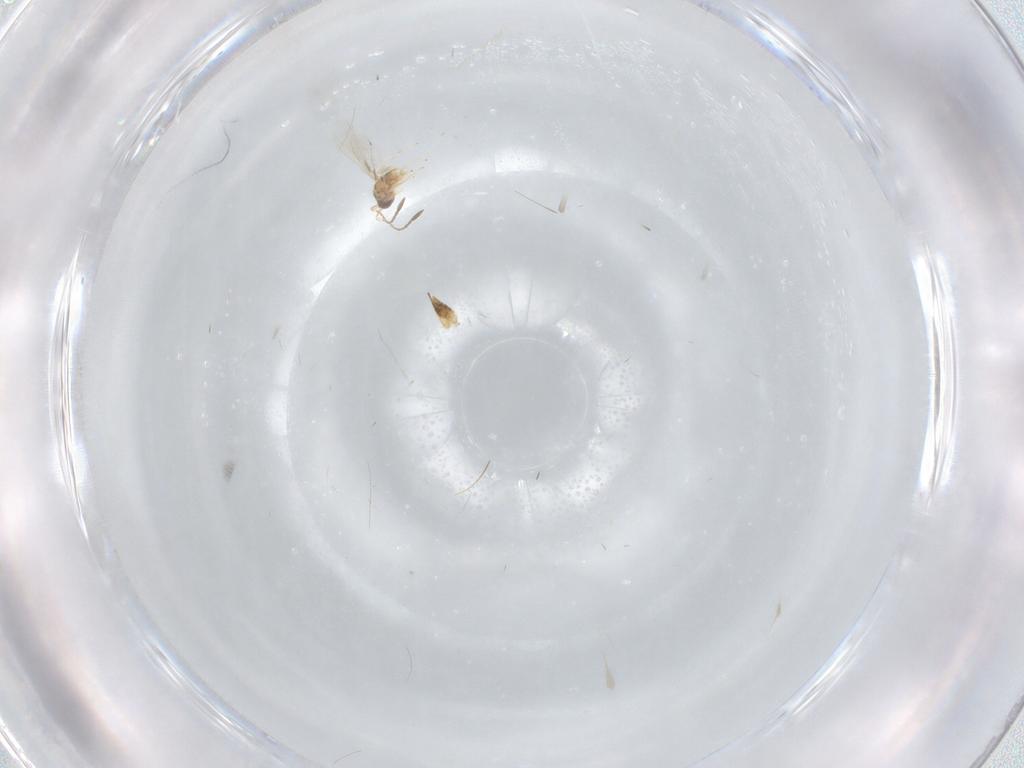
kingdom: Animalia
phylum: Arthropoda
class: Insecta
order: Hymenoptera
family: Mymaridae
